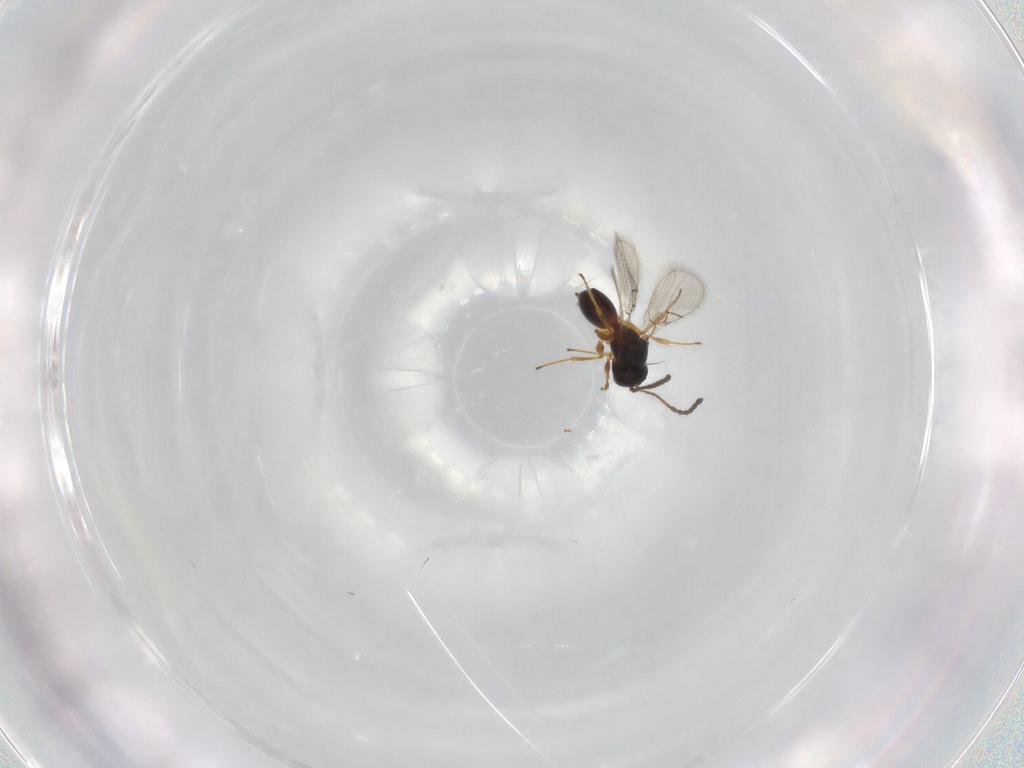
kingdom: Animalia
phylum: Arthropoda
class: Insecta
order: Hymenoptera
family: Figitidae
